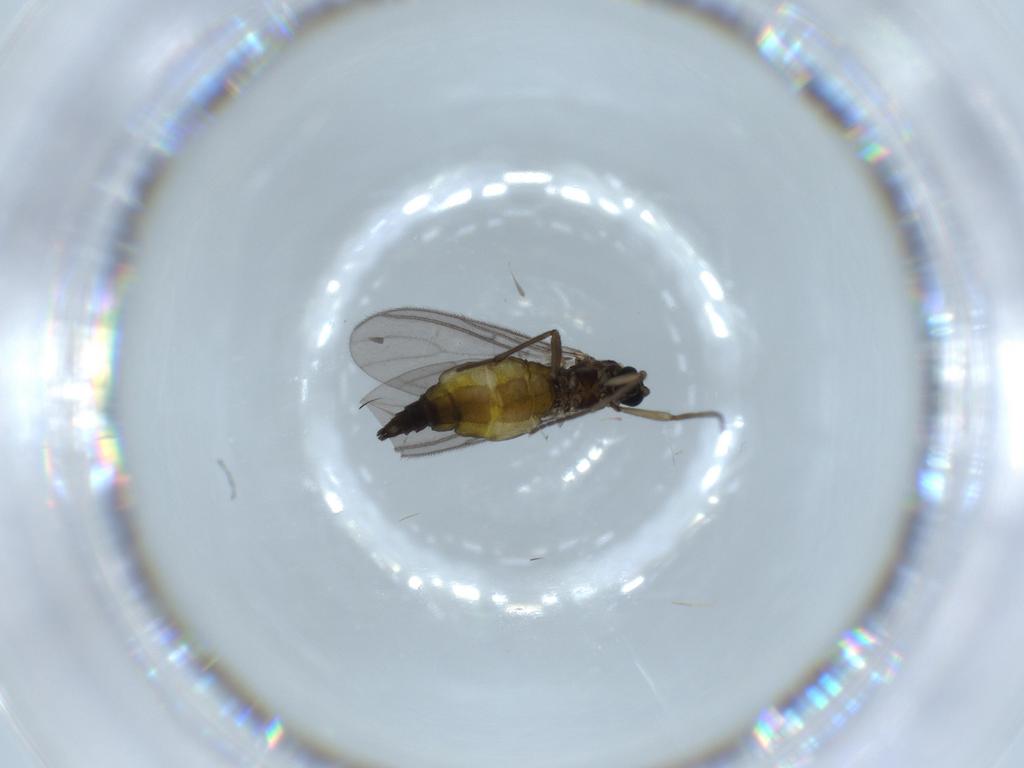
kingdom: Animalia
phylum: Arthropoda
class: Insecta
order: Diptera
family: Sciaridae
